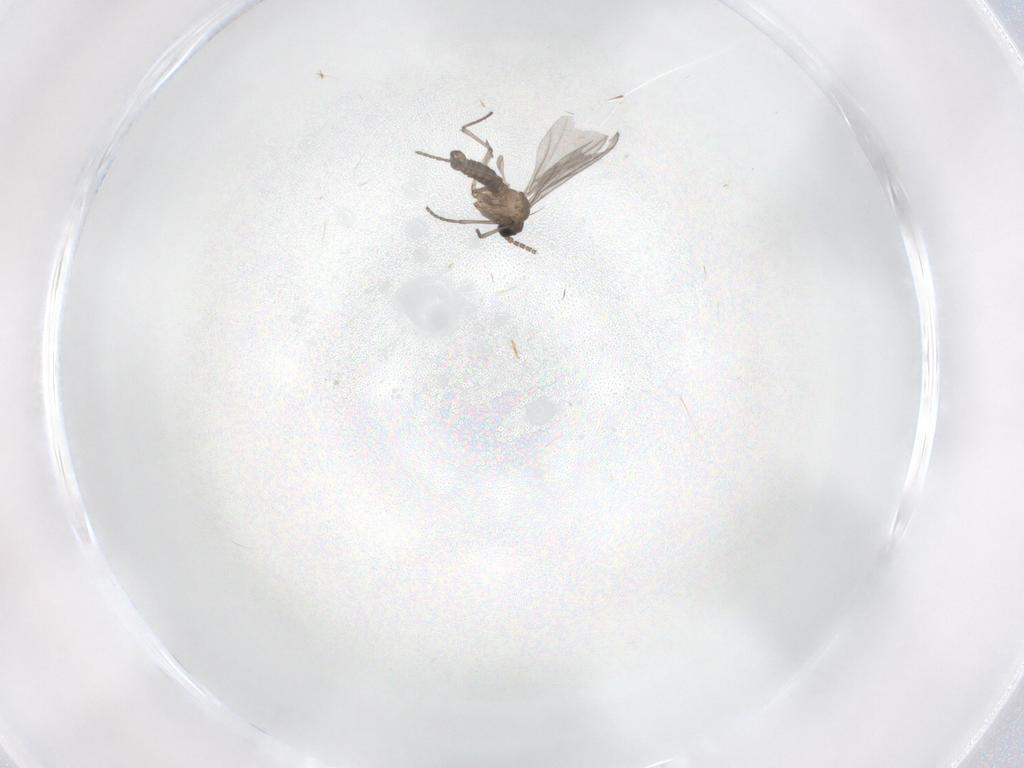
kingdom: Animalia
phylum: Arthropoda
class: Insecta
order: Diptera
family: Sciaridae
